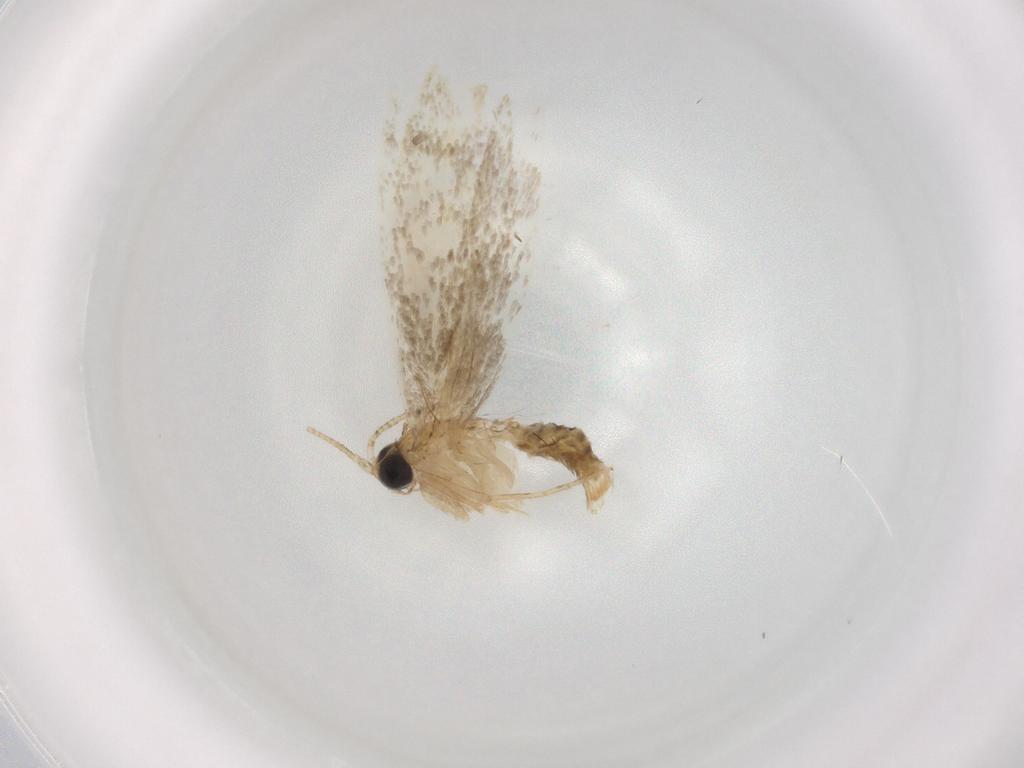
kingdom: Animalia
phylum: Arthropoda
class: Insecta
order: Lepidoptera
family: Tineidae
